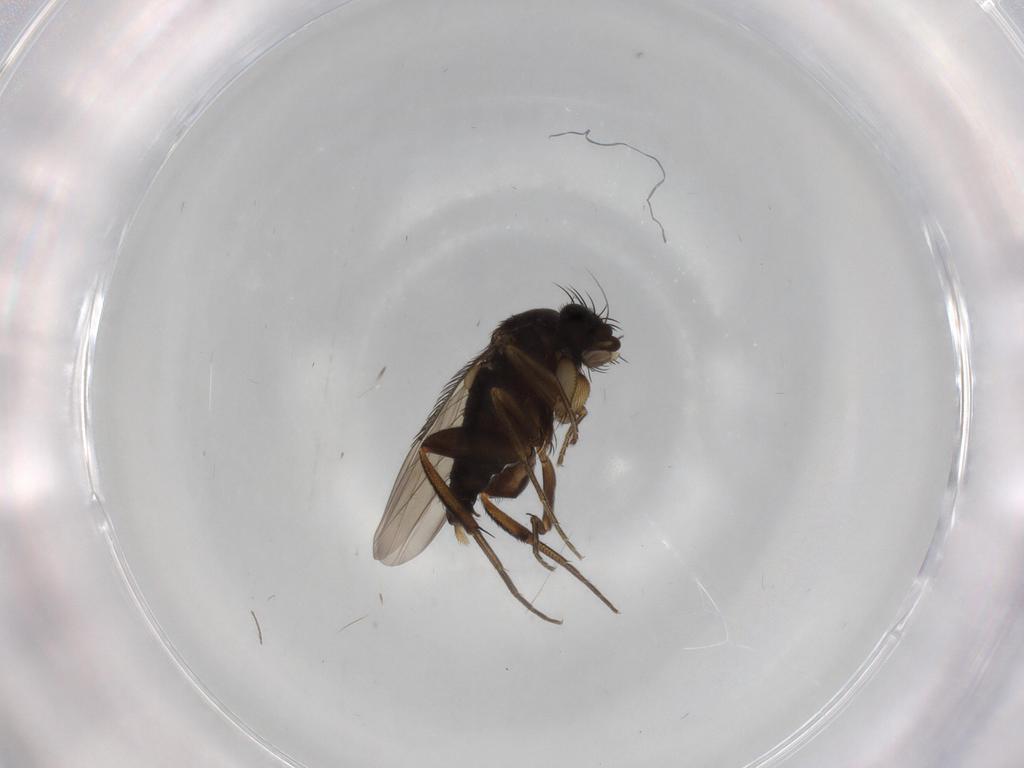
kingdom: Animalia
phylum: Arthropoda
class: Insecta
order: Diptera
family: Phoridae
